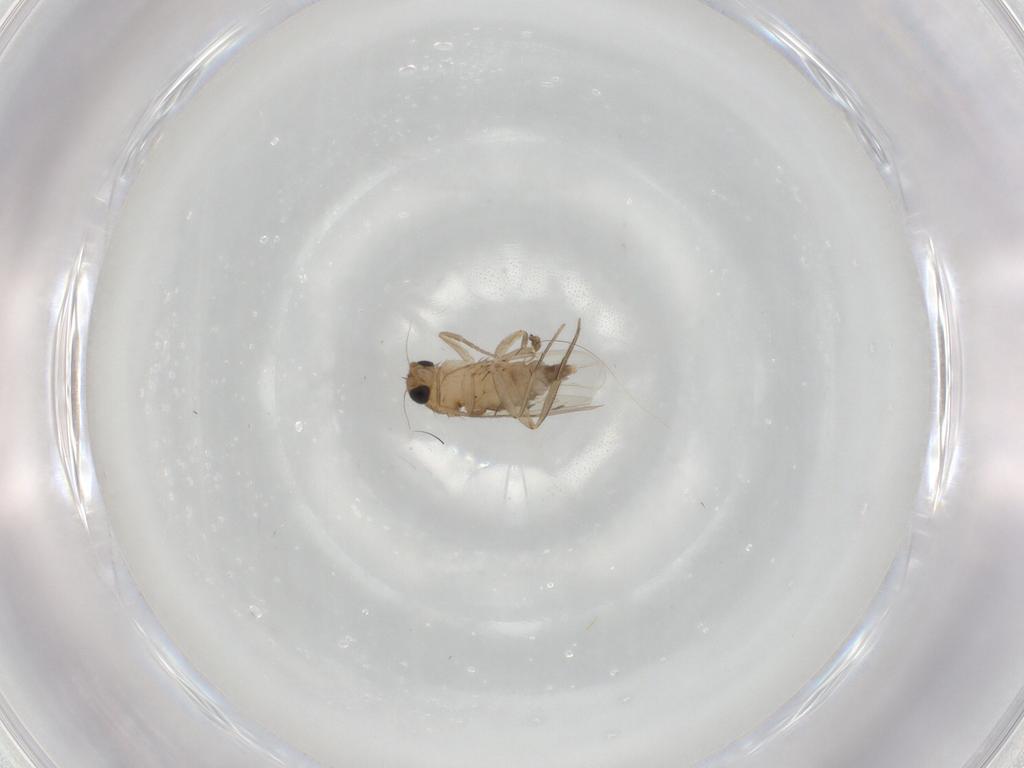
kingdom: Animalia
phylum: Arthropoda
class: Insecta
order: Diptera
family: Phoridae
